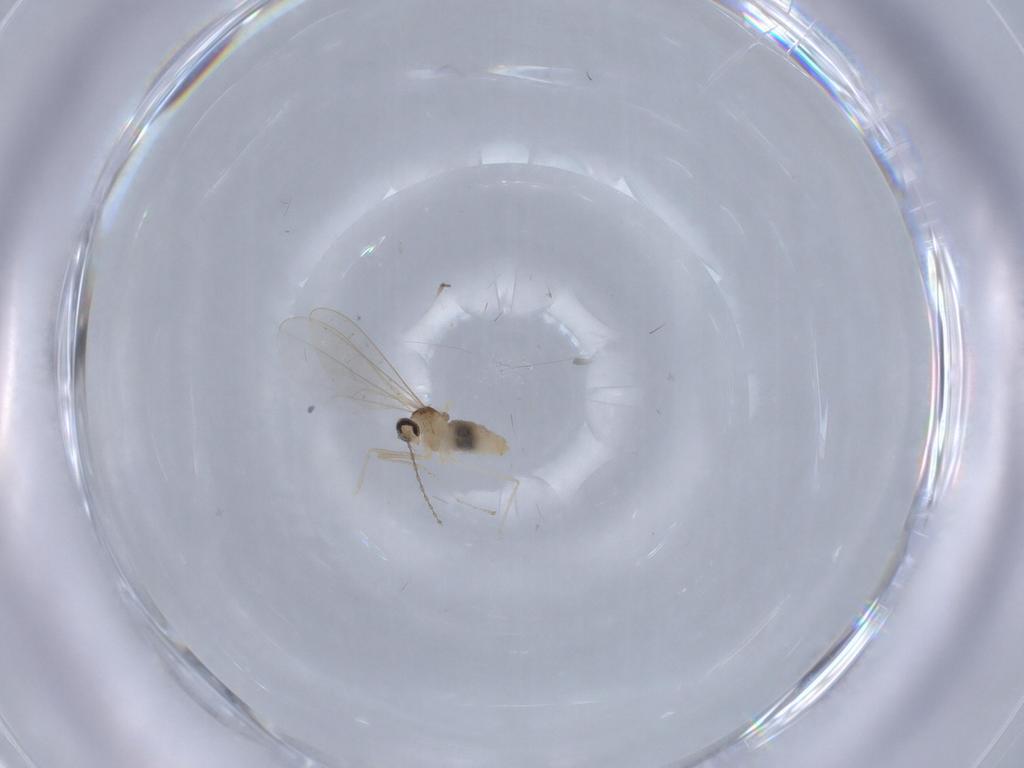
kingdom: Animalia
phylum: Arthropoda
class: Insecta
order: Diptera
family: Cecidomyiidae
